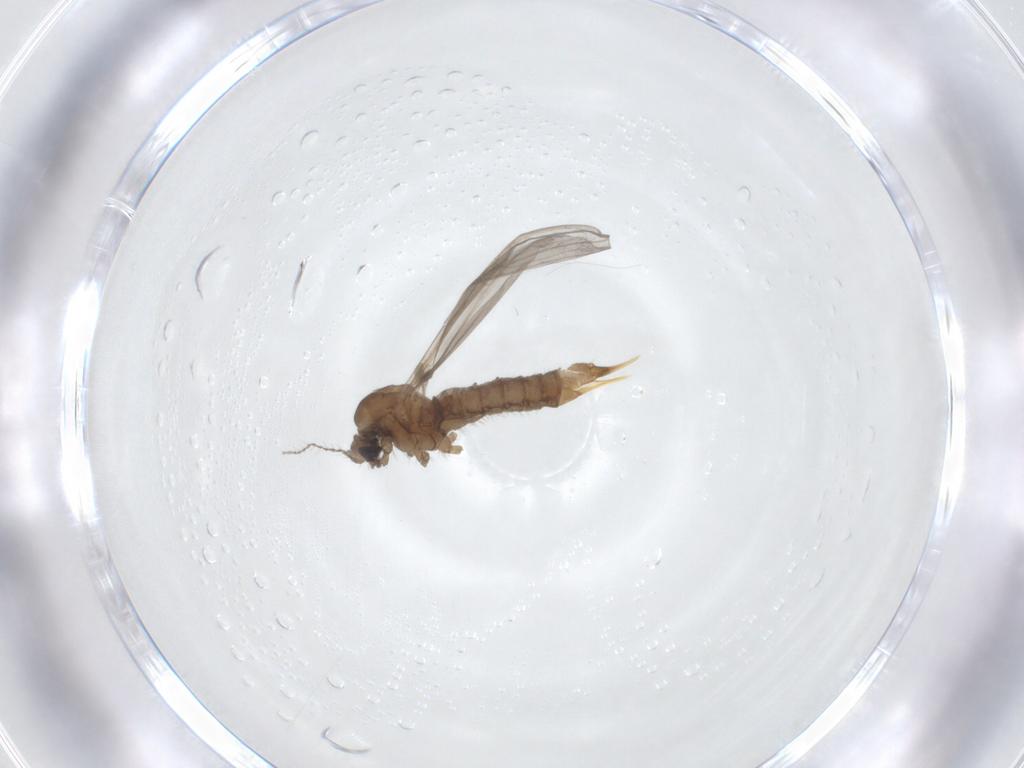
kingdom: Animalia
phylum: Arthropoda
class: Insecta
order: Diptera
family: Limoniidae
